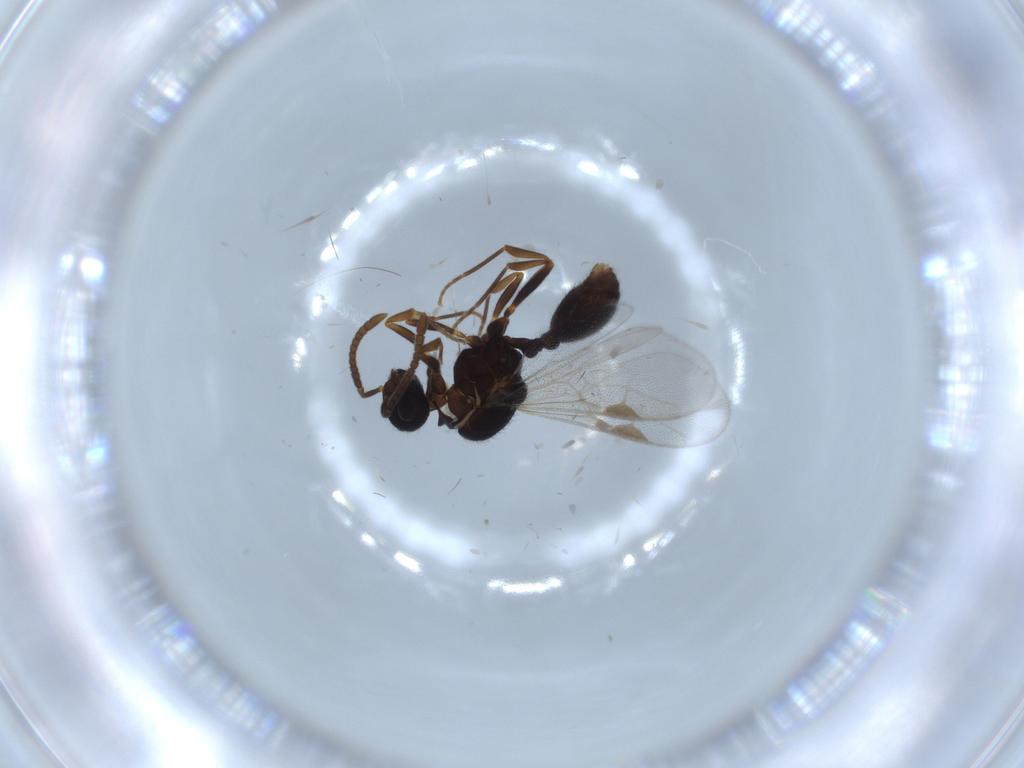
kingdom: Animalia
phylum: Arthropoda
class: Insecta
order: Hymenoptera
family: Formicidae
